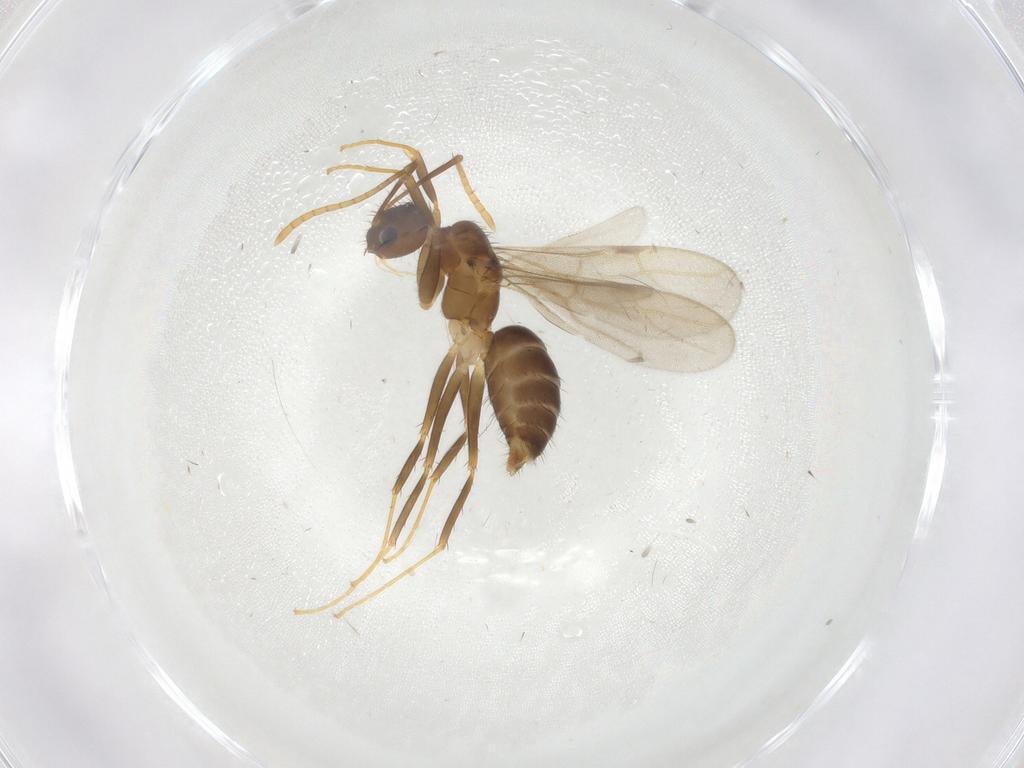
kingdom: Animalia
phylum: Arthropoda
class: Insecta
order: Hymenoptera
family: Formicidae
